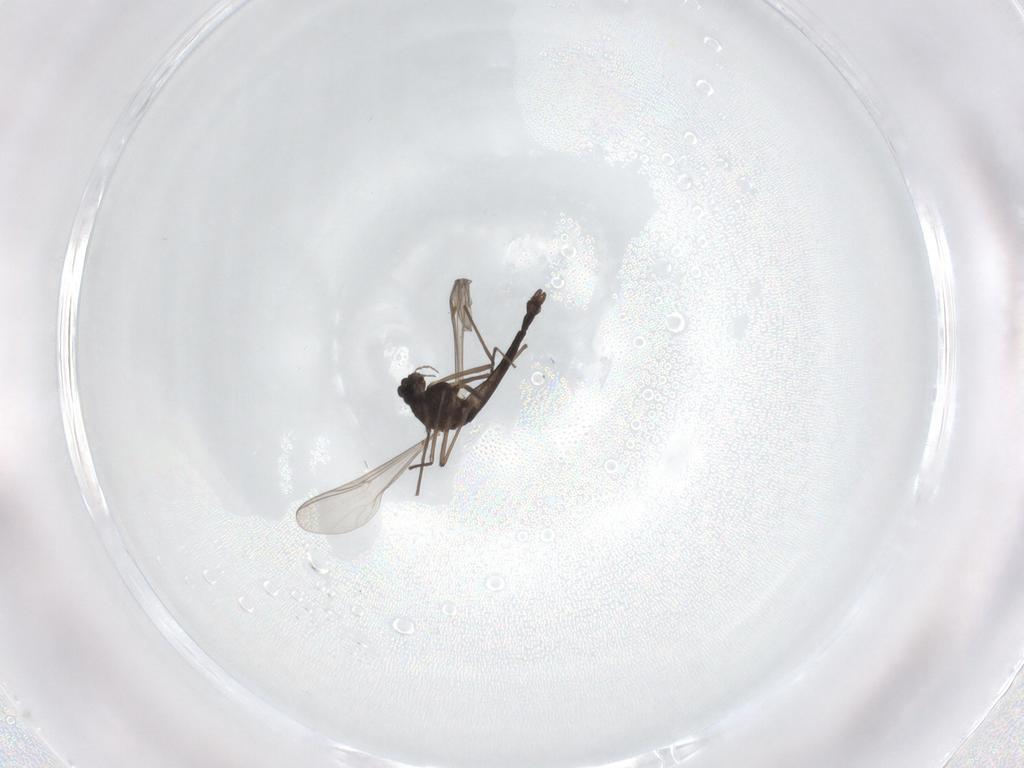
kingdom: Animalia
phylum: Arthropoda
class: Insecta
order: Diptera
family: Chironomidae
